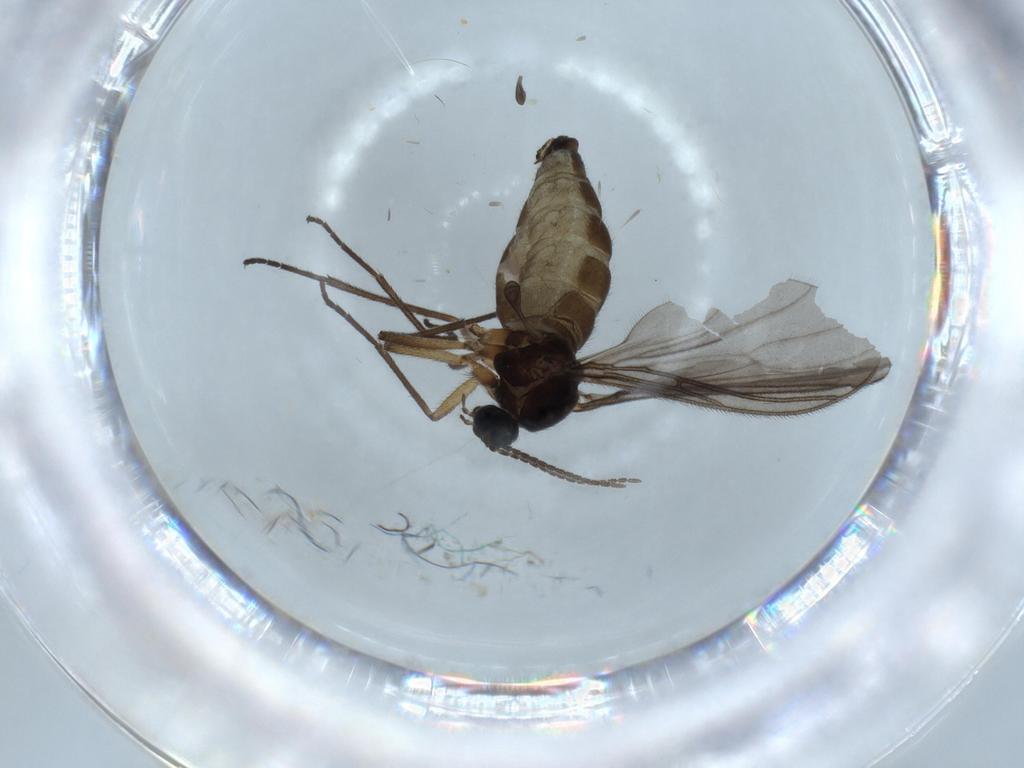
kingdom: Animalia
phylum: Arthropoda
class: Insecta
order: Diptera
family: Sciaridae
